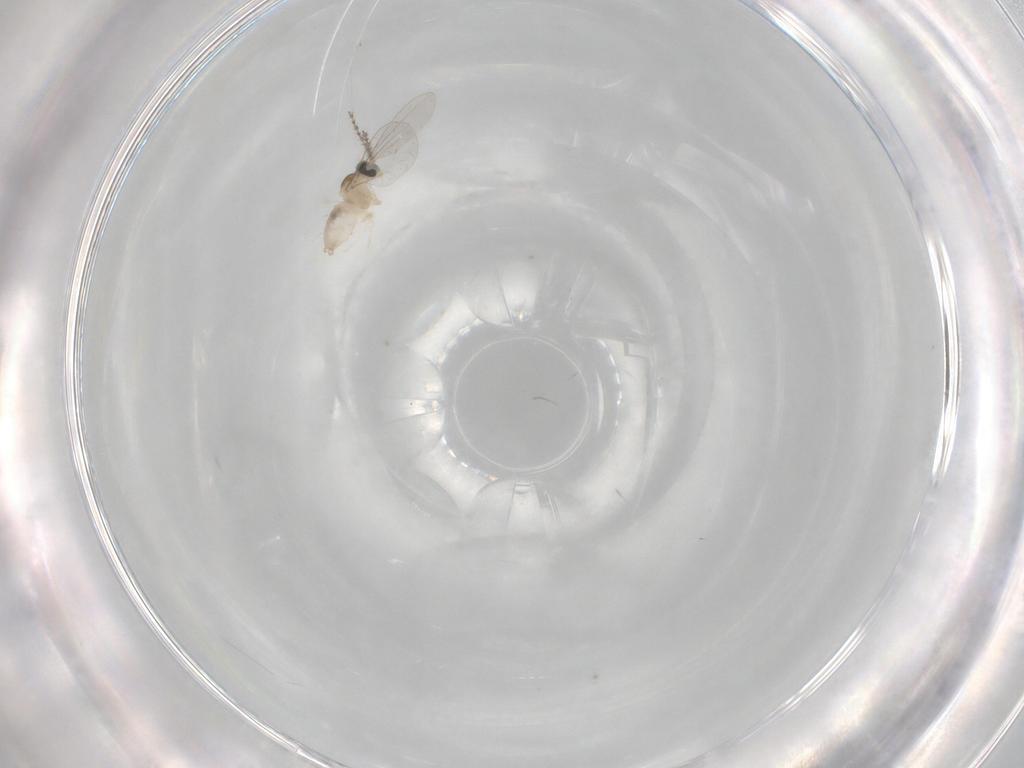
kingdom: Animalia
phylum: Arthropoda
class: Insecta
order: Diptera
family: Cecidomyiidae
